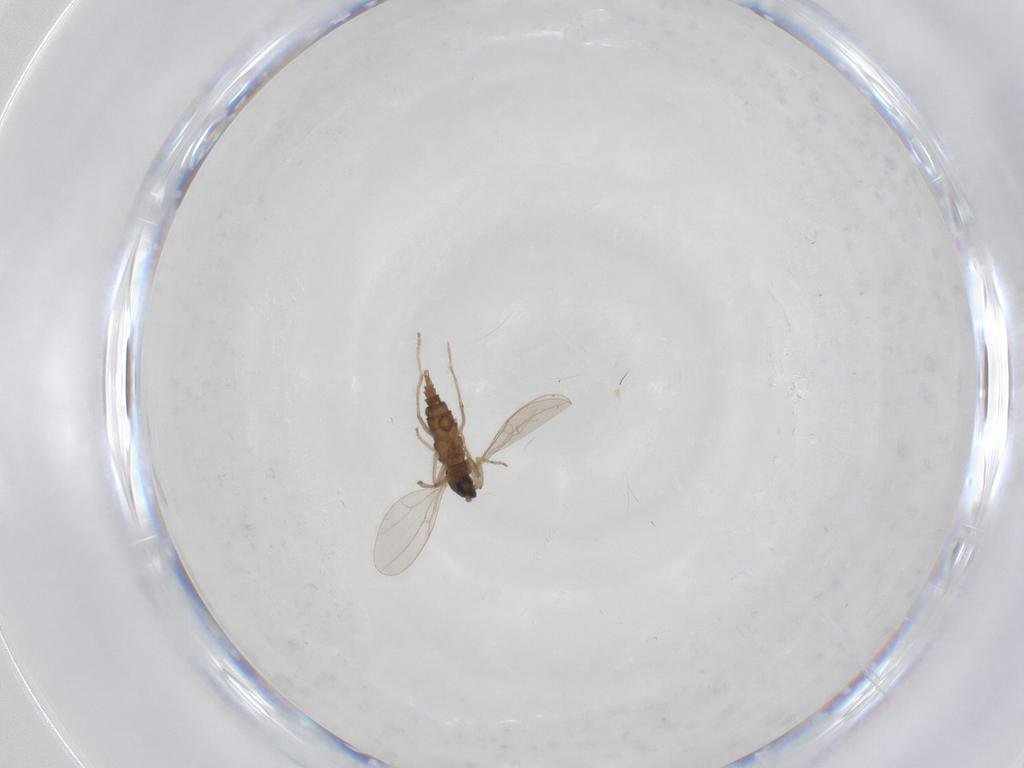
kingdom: Animalia
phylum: Arthropoda
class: Insecta
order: Diptera
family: Cecidomyiidae
